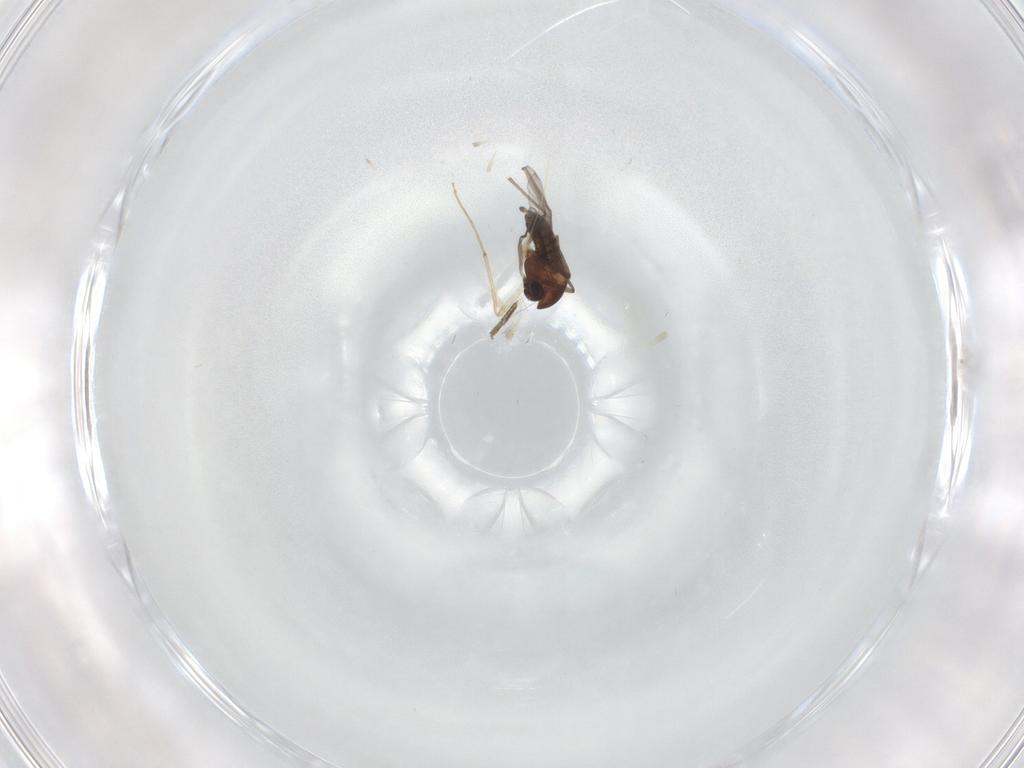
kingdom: Animalia
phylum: Arthropoda
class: Insecta
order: Diptera
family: Chironomidae
